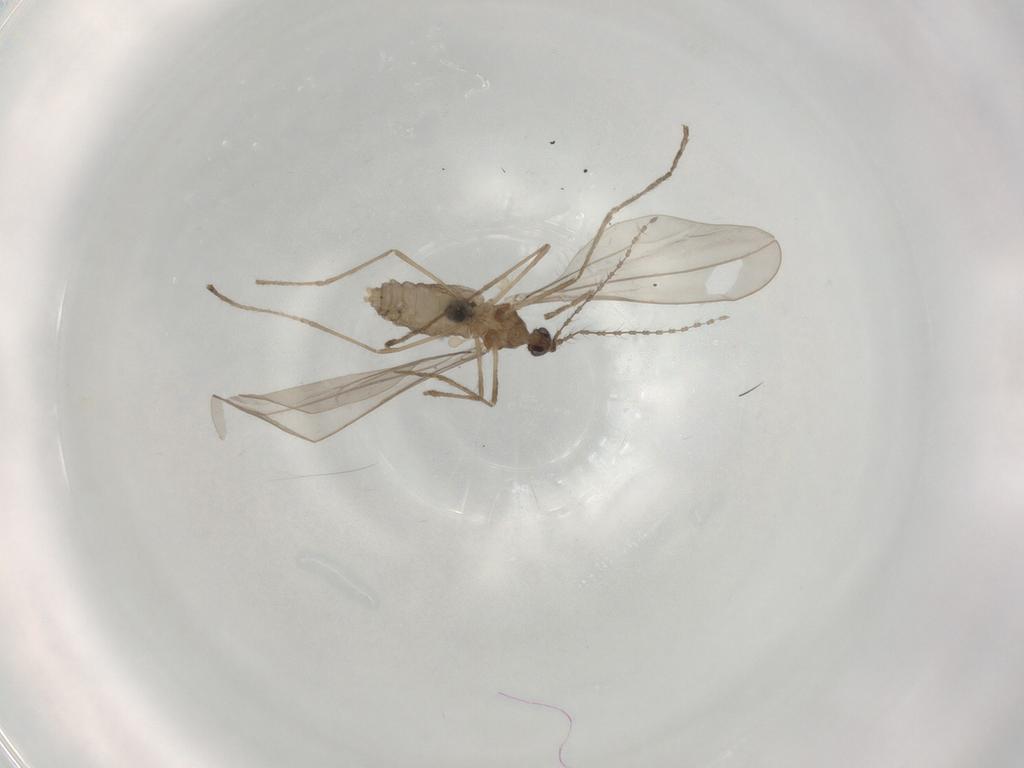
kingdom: Animalia
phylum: Arthropoda
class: Insecta
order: Diptera
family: Cecidomyiidae
